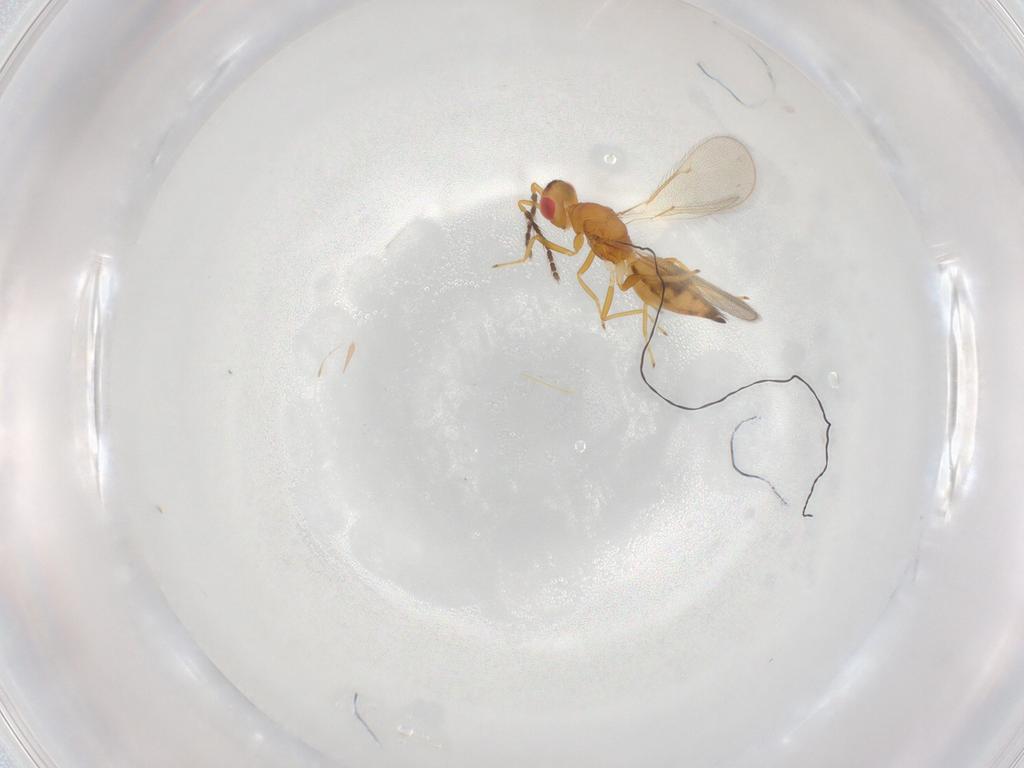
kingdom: Animalia
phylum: Arthropoda
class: Insecta
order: Hymenoptera
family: Eulophidae
